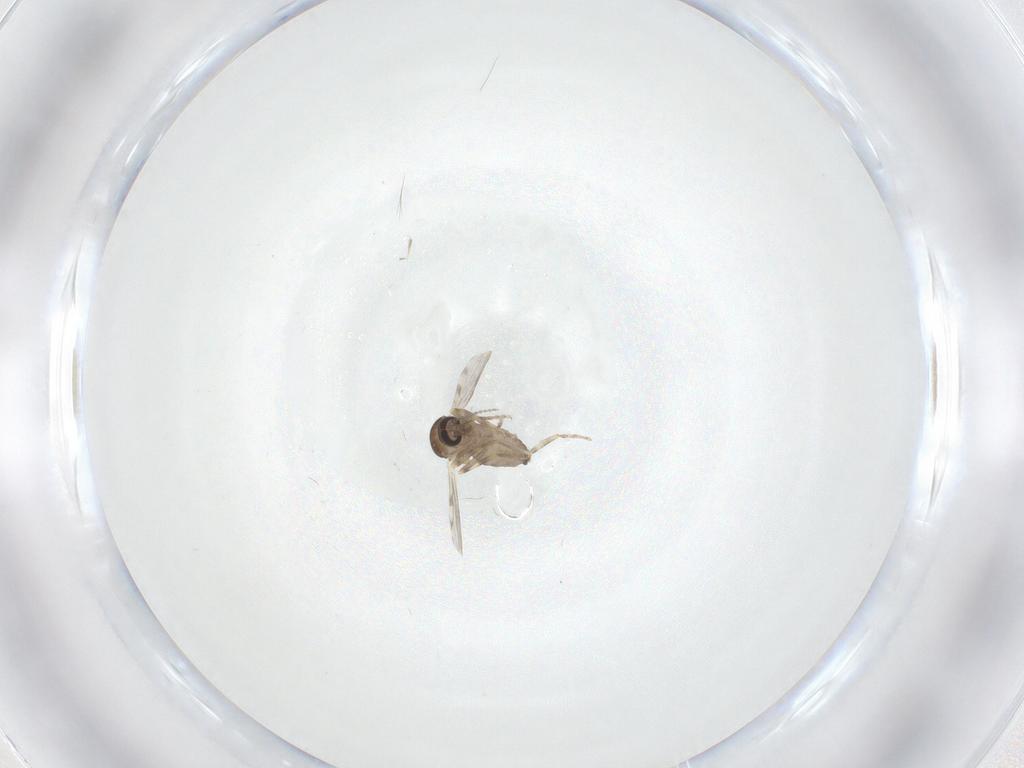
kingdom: Animalia
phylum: Arthropoda
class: Insecta
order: Diptera
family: Ceratopogonidae
